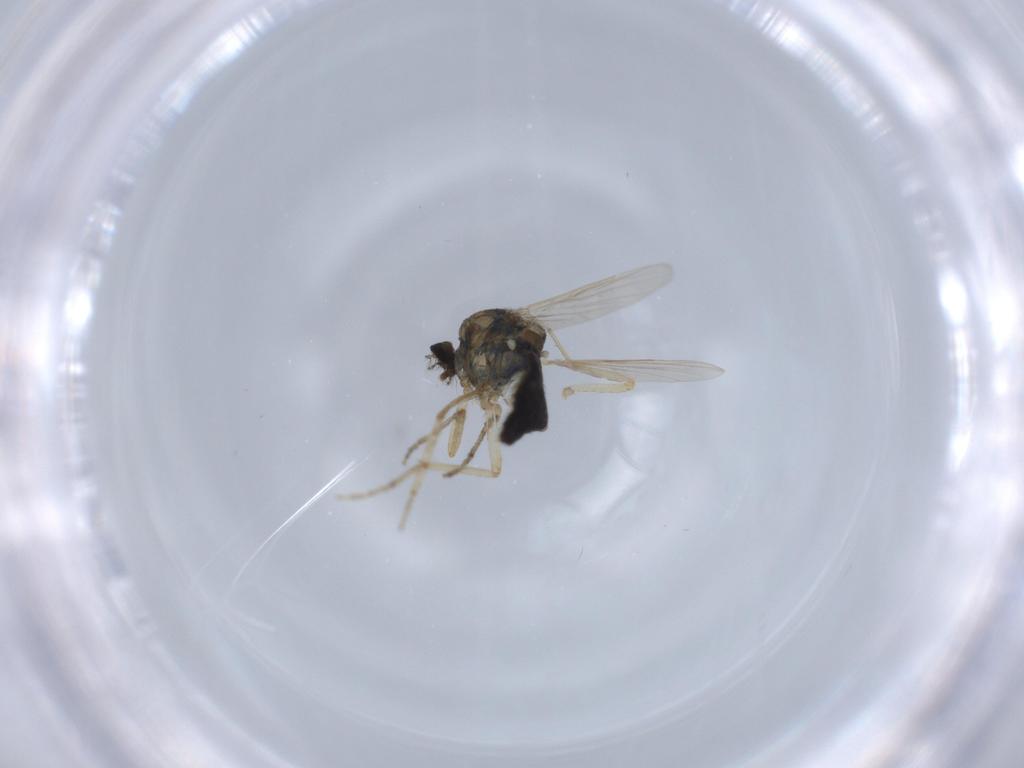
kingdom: Animalia
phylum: Arthropoda
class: Insecta
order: Diptera
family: Ceratopogonidae
